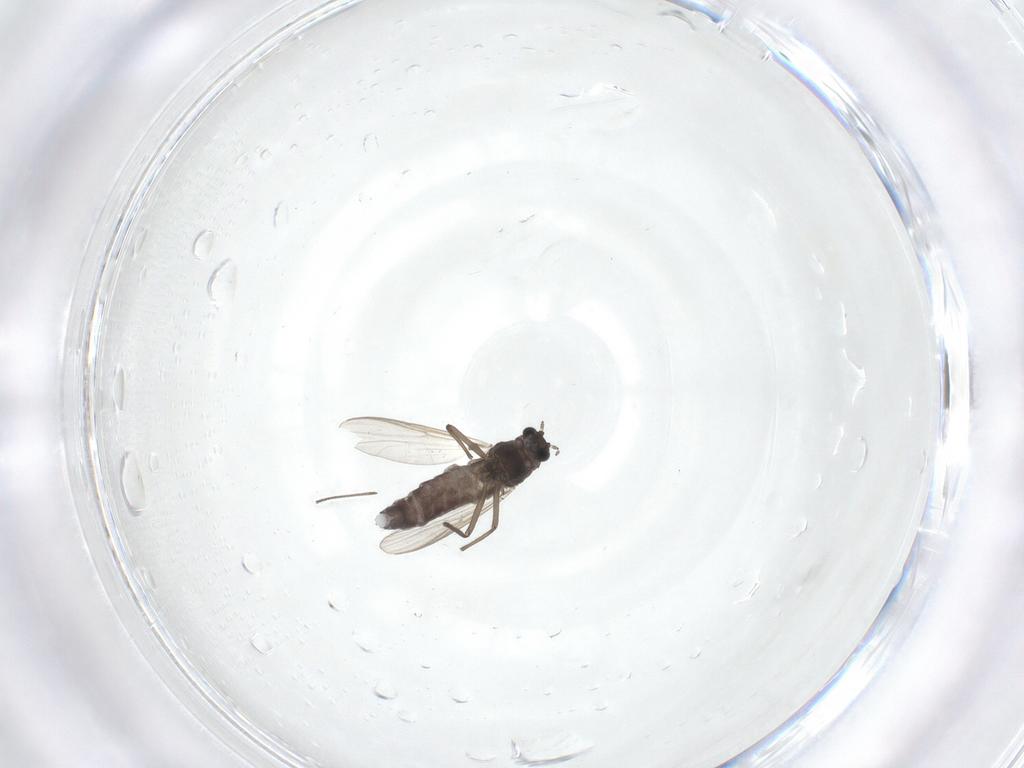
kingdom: Animalia
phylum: Arthropoda
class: Insecta
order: Diptera
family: Chironomidae
